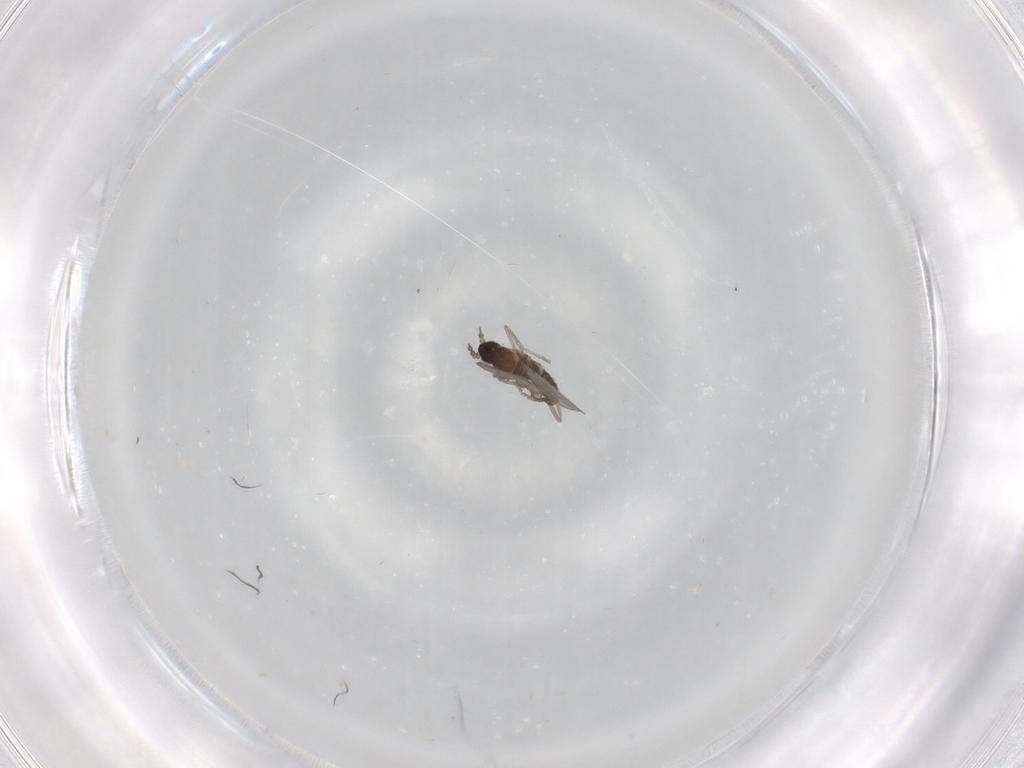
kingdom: Animalia
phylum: Arthropoda
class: Insecta
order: Diptera
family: Cecidomyiidae
